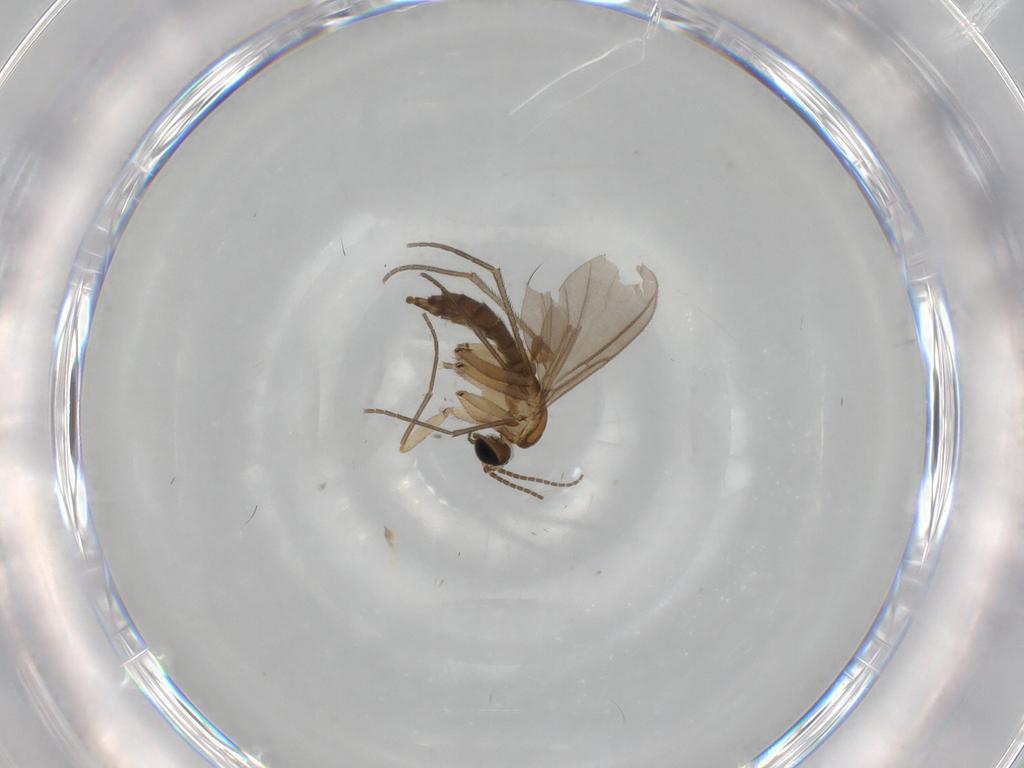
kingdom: Animalia
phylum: Arthropoda
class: Insecta
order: Diptera
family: Sciaridae
